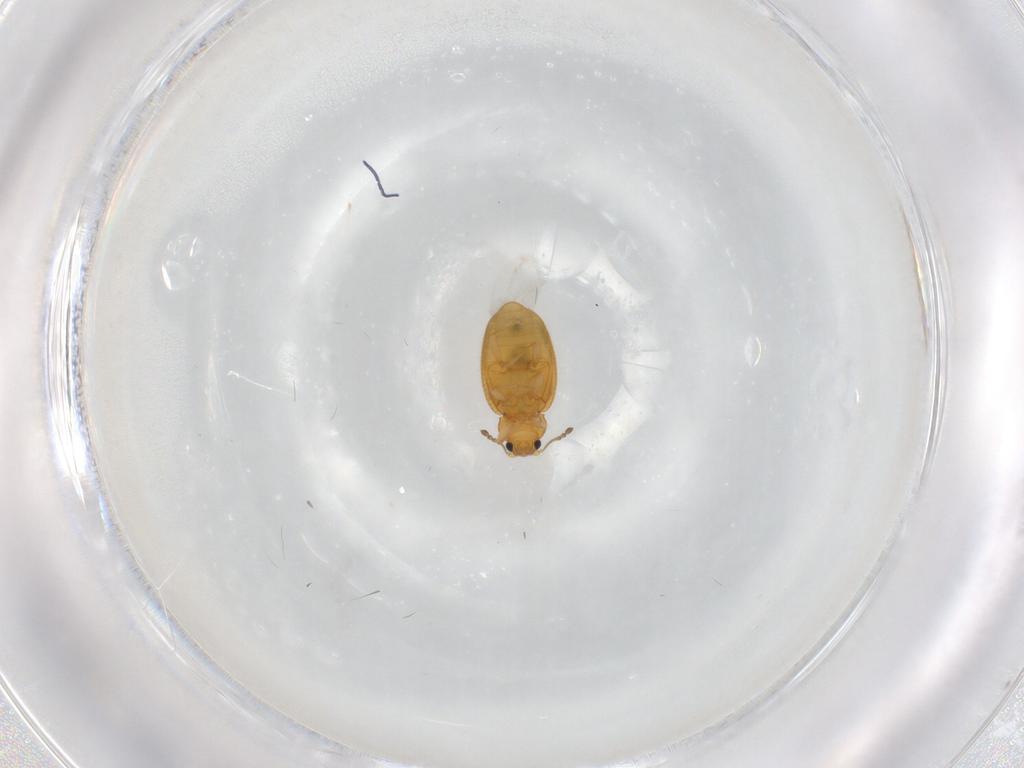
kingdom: Animalia
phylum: Arthropoda
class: Insecta
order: Coleoptera
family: Latridiidae
